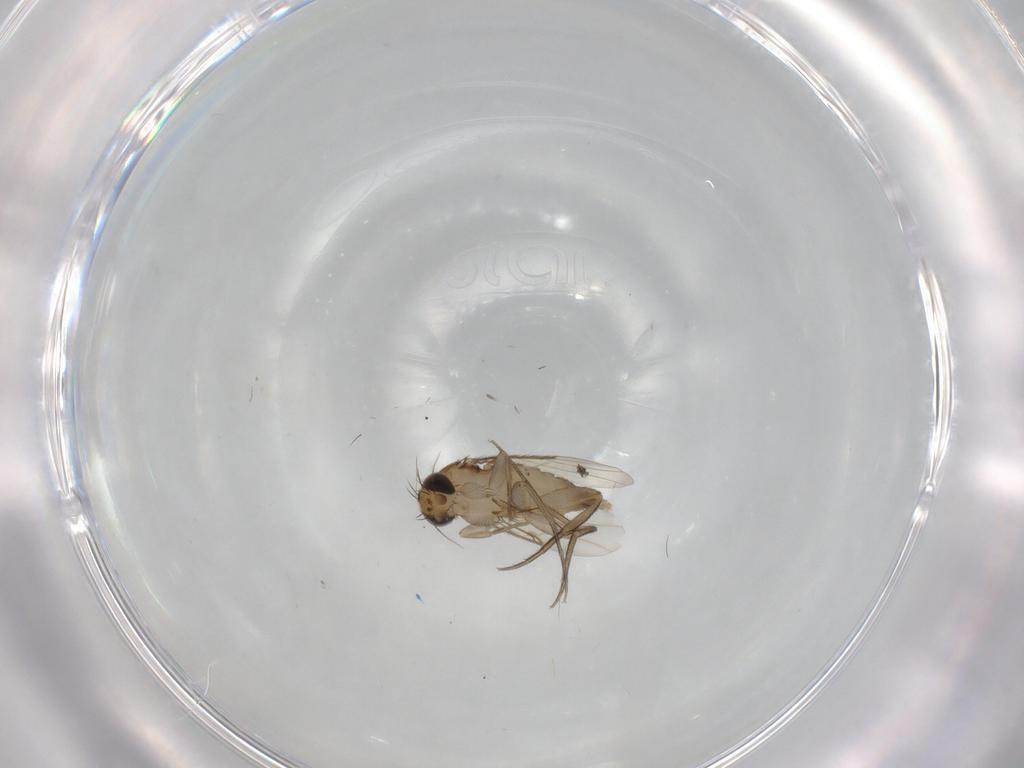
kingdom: Animalia
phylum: Arthropoda
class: Insecta
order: Diptera
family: Phoridae
